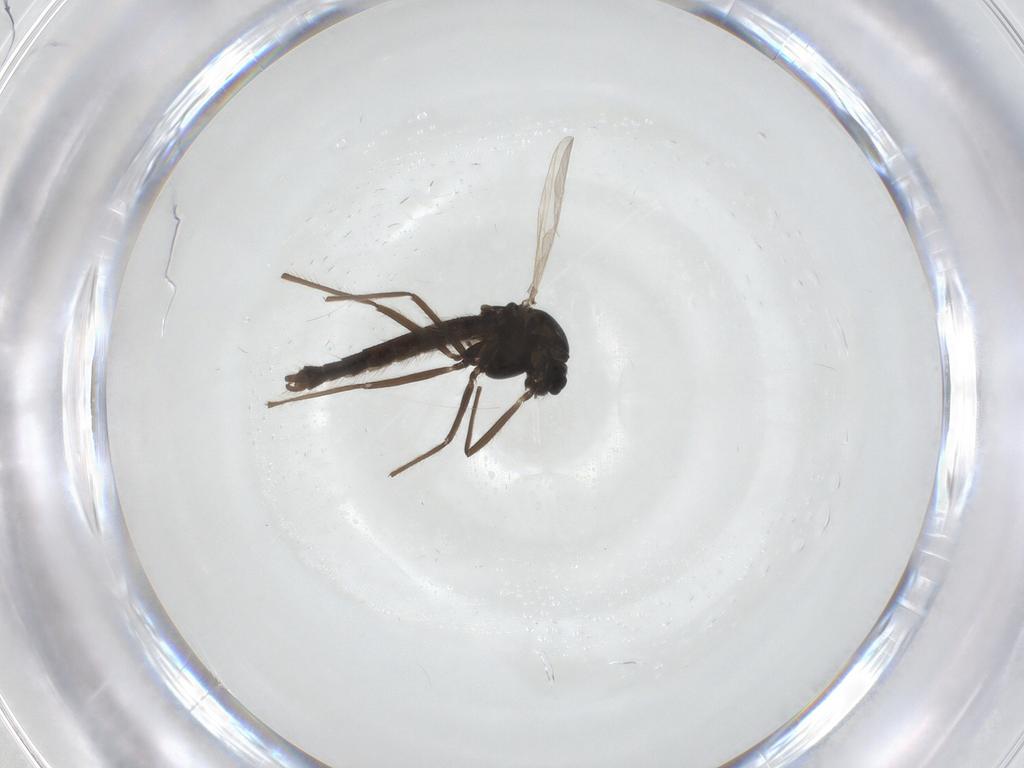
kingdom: Animalia
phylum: Arthropoda
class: Insecta
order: Diptera
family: Chironomidae
